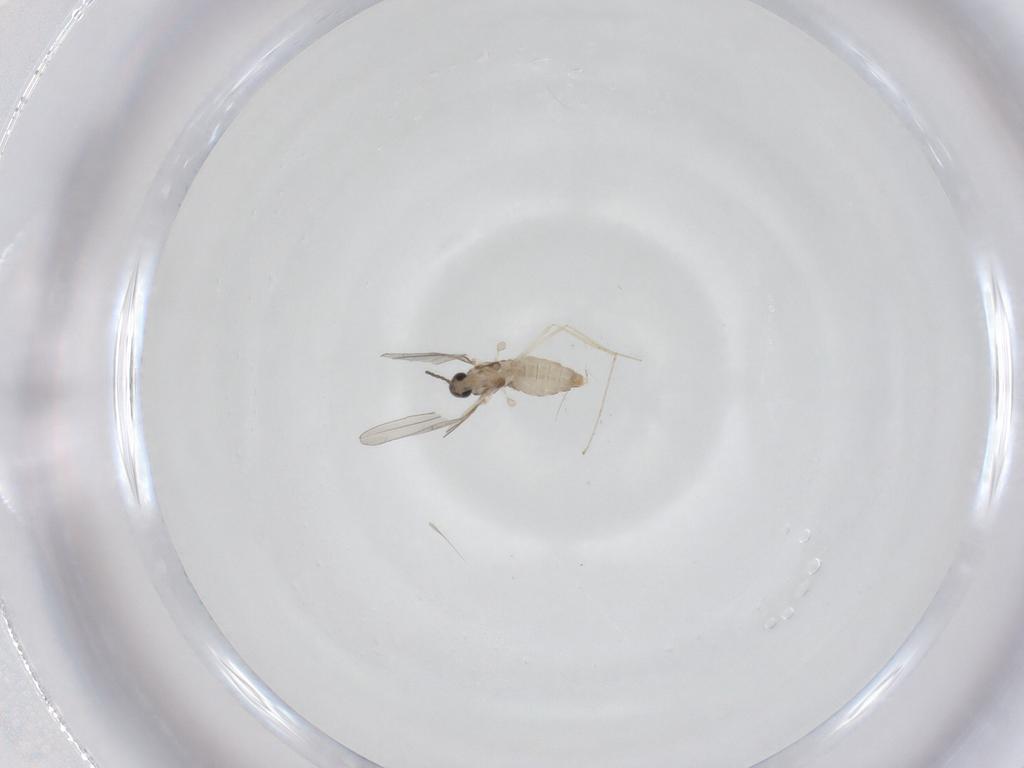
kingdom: Animalia
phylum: Arthropoda
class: Insecta
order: Diptera
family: Cecidomyiidae
